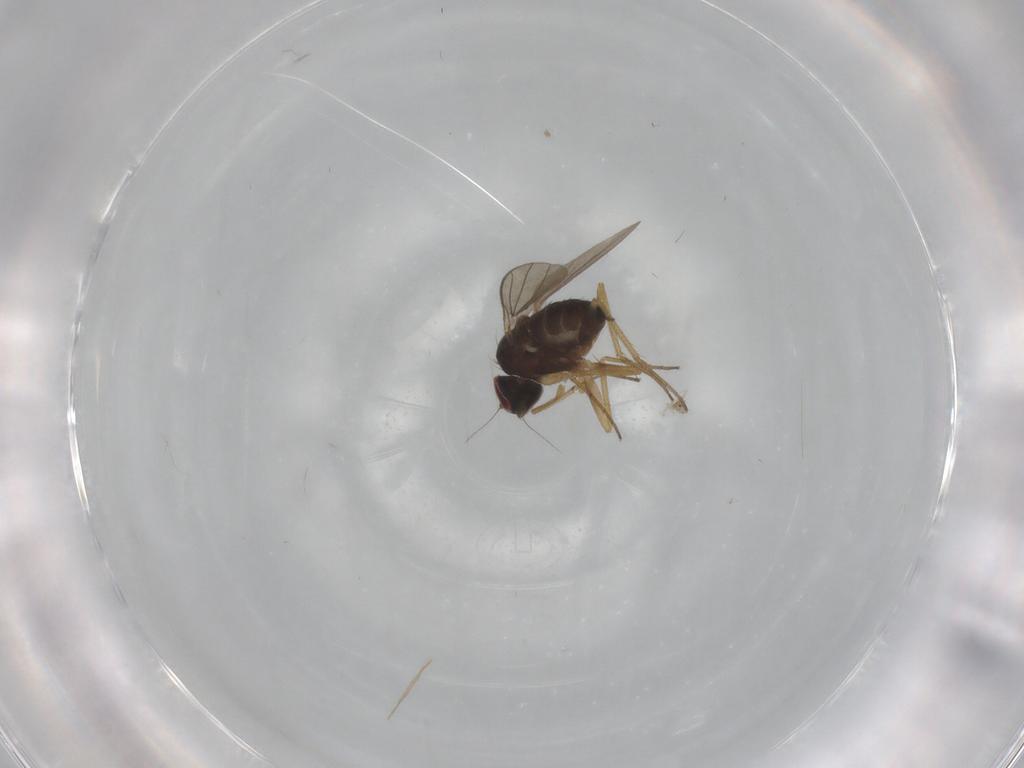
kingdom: Animalia
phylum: Arthropoda
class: Insecta
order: Diptera
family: Dolichopodidae
